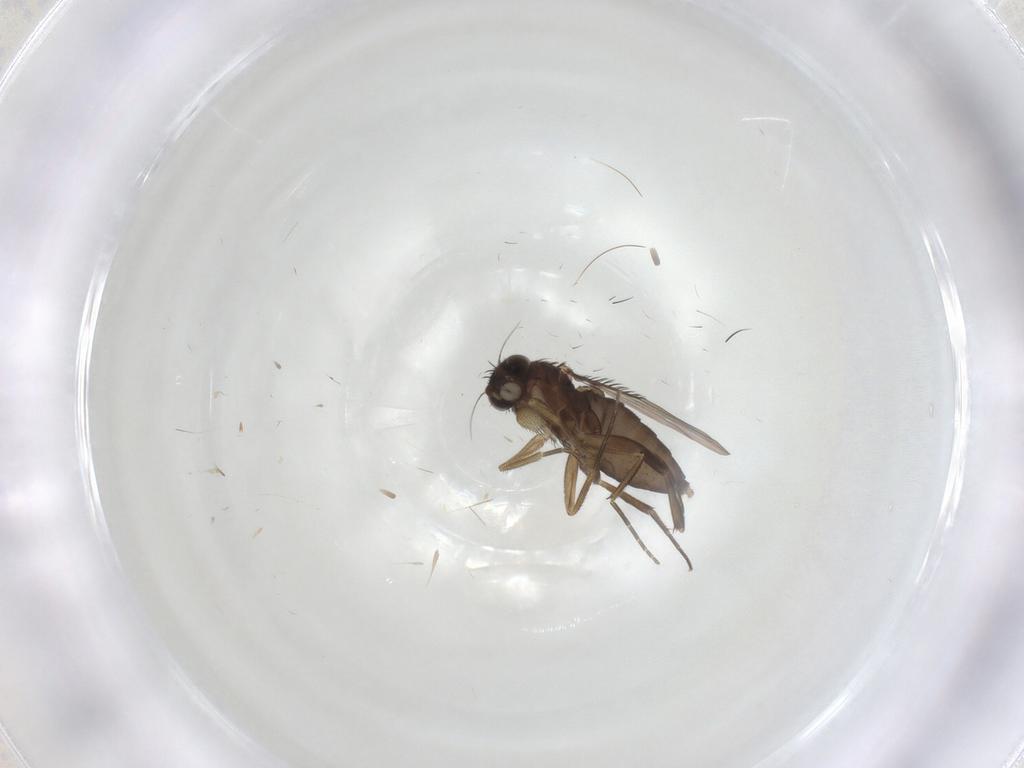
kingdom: Animalia
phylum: Arthropoda
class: Insecta
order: Diptera
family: Phoridae
